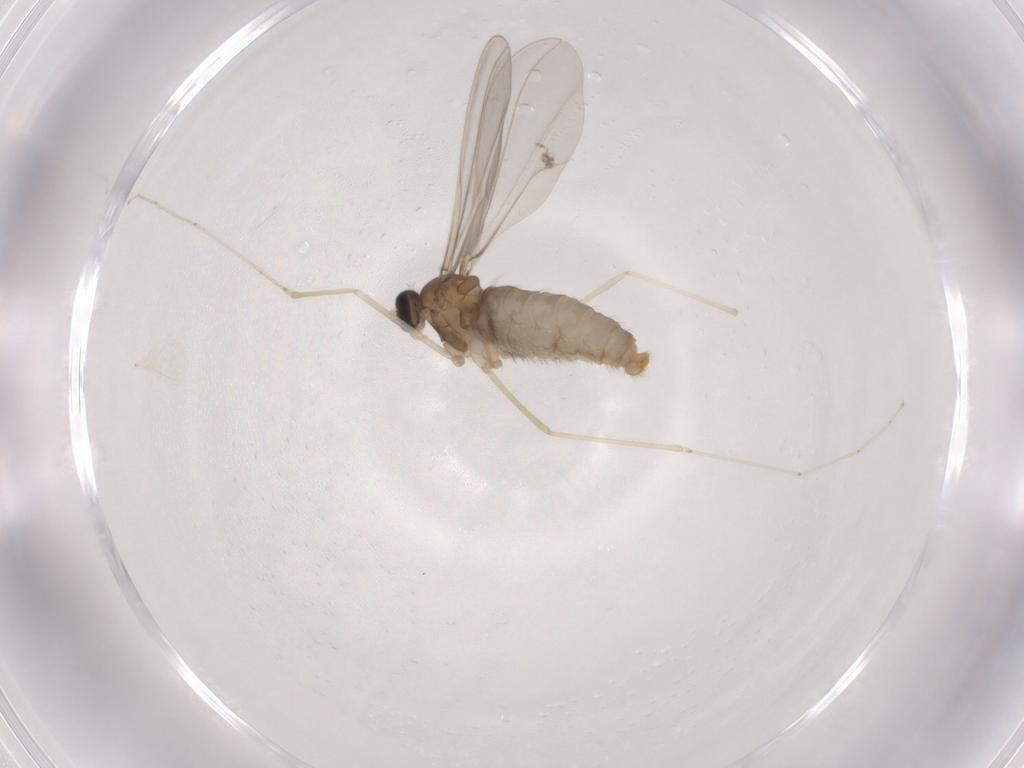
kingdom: Animalia
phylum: Arthropoda
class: Insecta
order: Diptera
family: Cecidomyiidae
